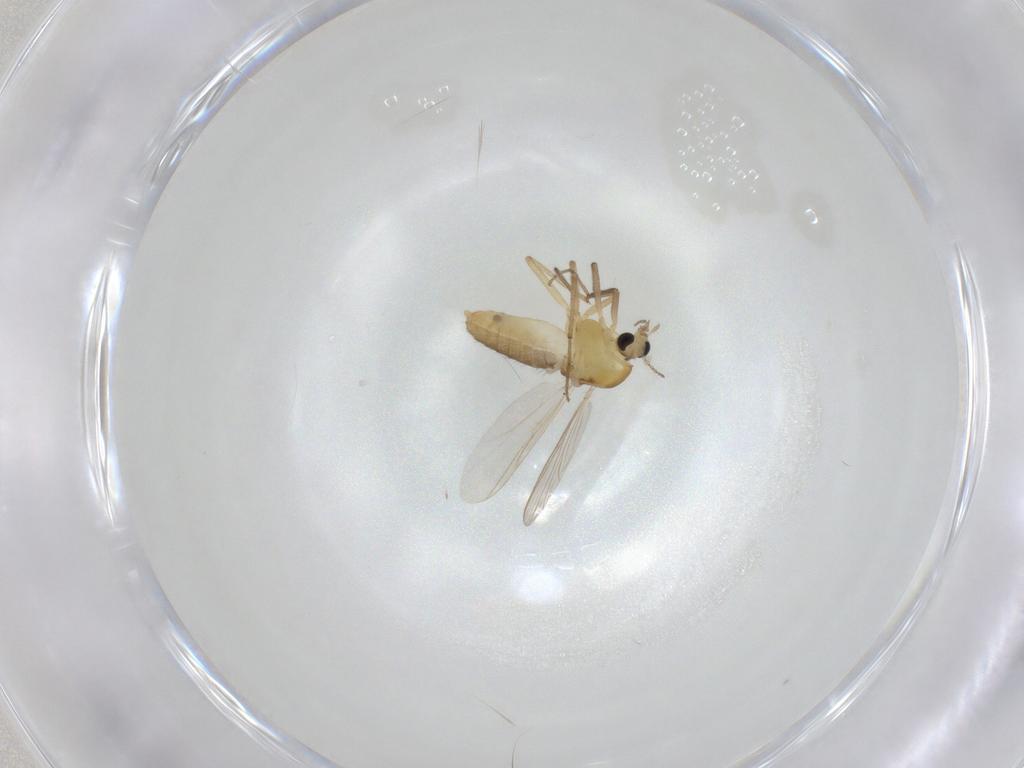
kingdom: Animalia
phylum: Arthropoda
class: Insecta
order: Diptera
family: Chironomidae
